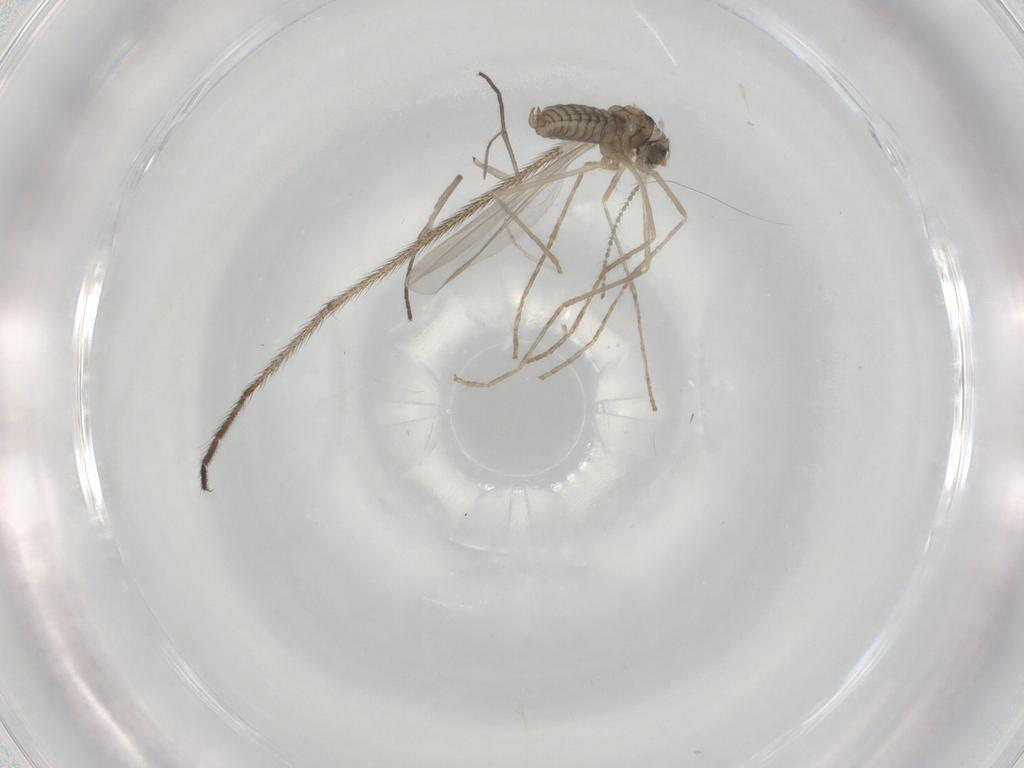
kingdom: Animalia
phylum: Arthropoda
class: Insecta
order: Diptera
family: Cecidomyiidae
